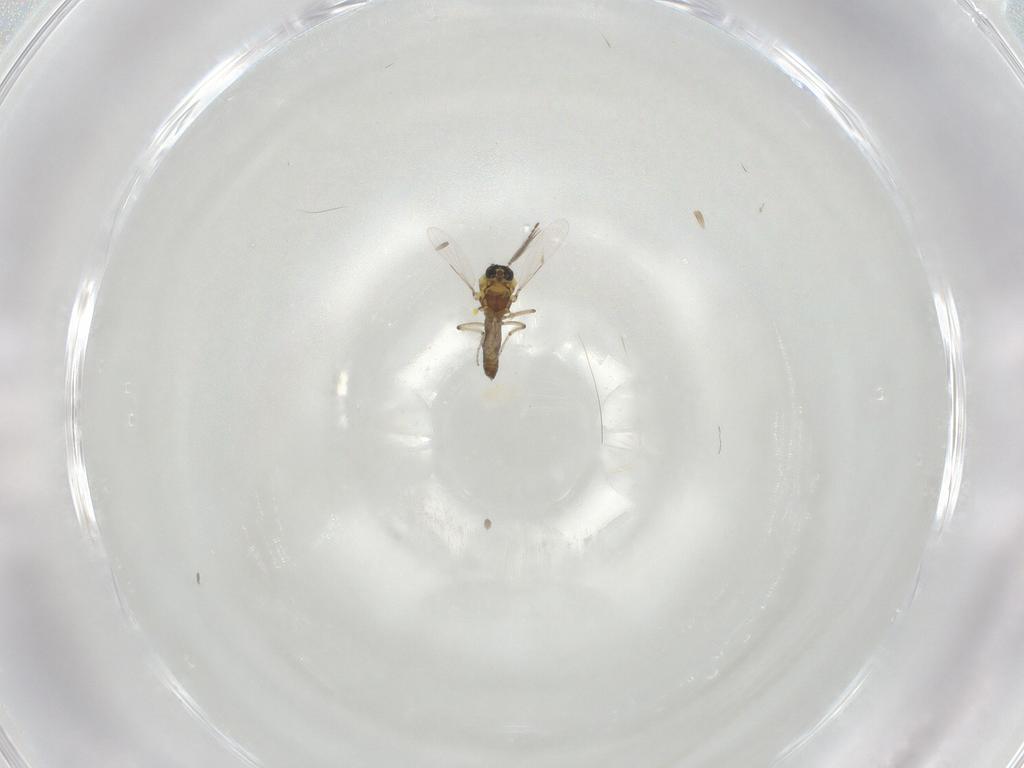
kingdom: Animalia
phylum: Arthropoda
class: Insecta
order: Diptera
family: Ceratopogonidae
